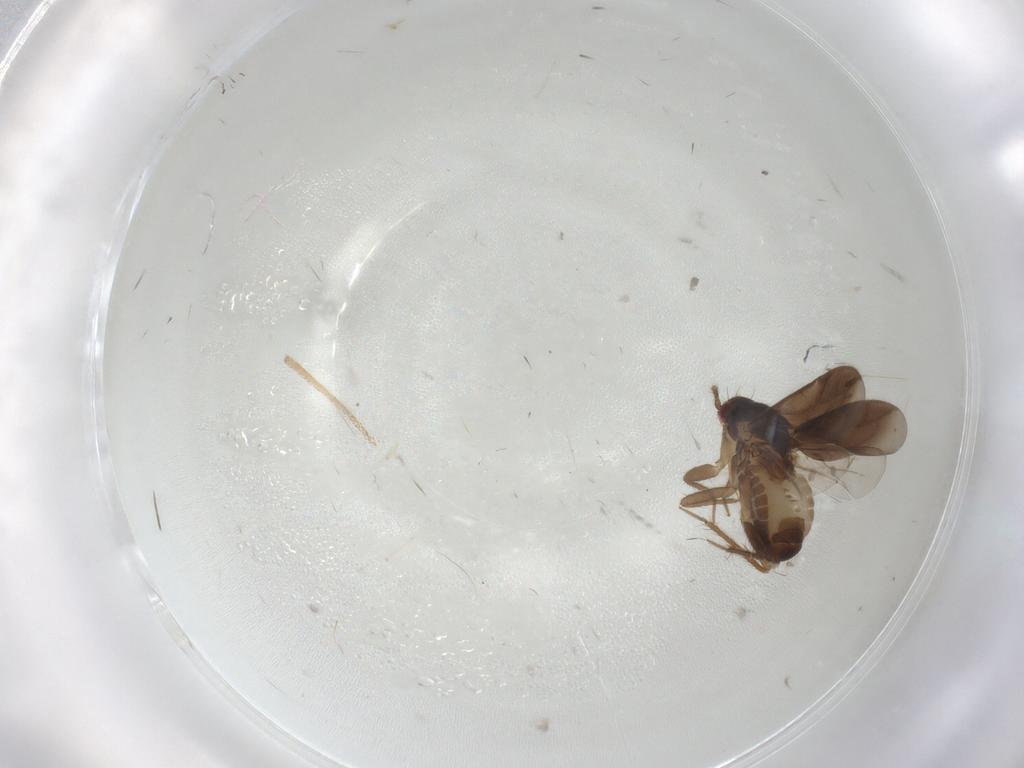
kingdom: Animalia
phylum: Arthropoda
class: Insecta
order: Hemiptera
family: Ceratocombidae
